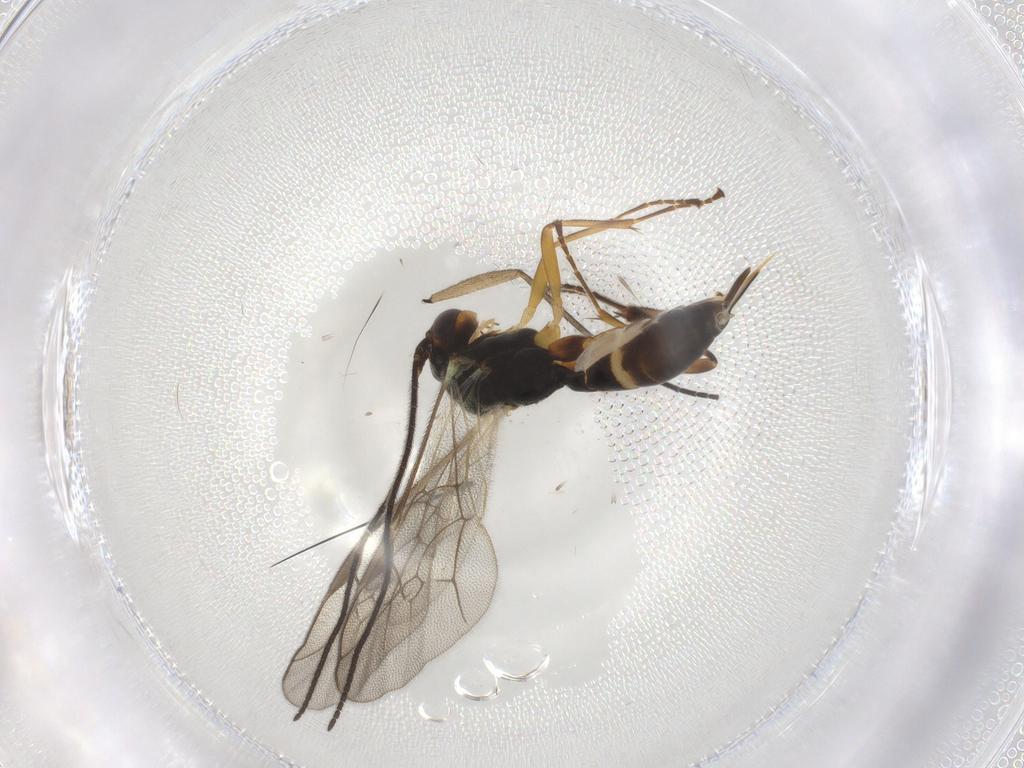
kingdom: Animalia
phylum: Arthropoda
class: Insecta
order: Hymenoptera
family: Ichneumonidae
